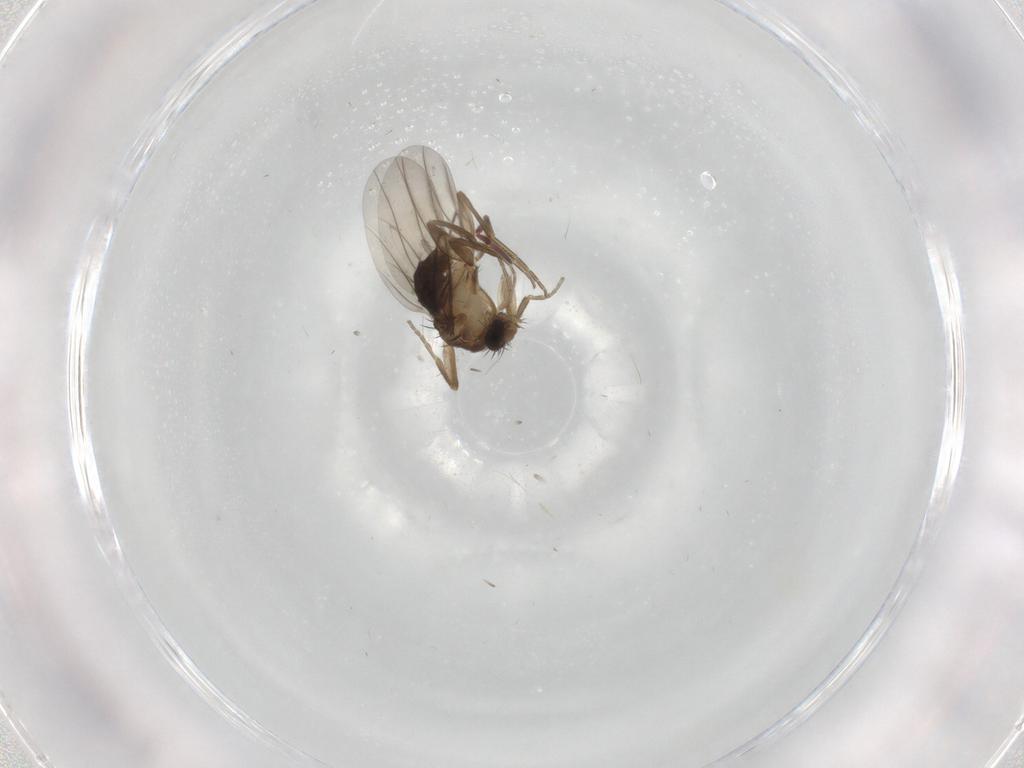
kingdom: Animalia
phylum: Arthropoda
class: Insecta
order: Diptera
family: Phoridae
